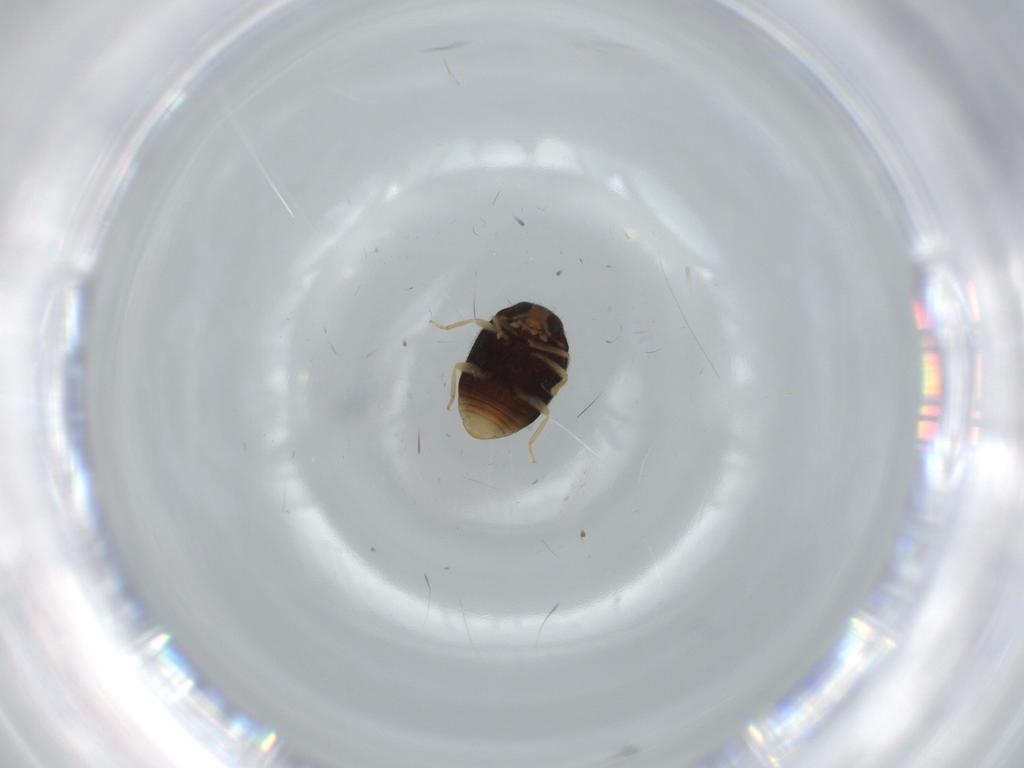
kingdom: Animalia
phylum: Arthropoda
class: Insecta
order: Coleoptera
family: Coccinellidae
